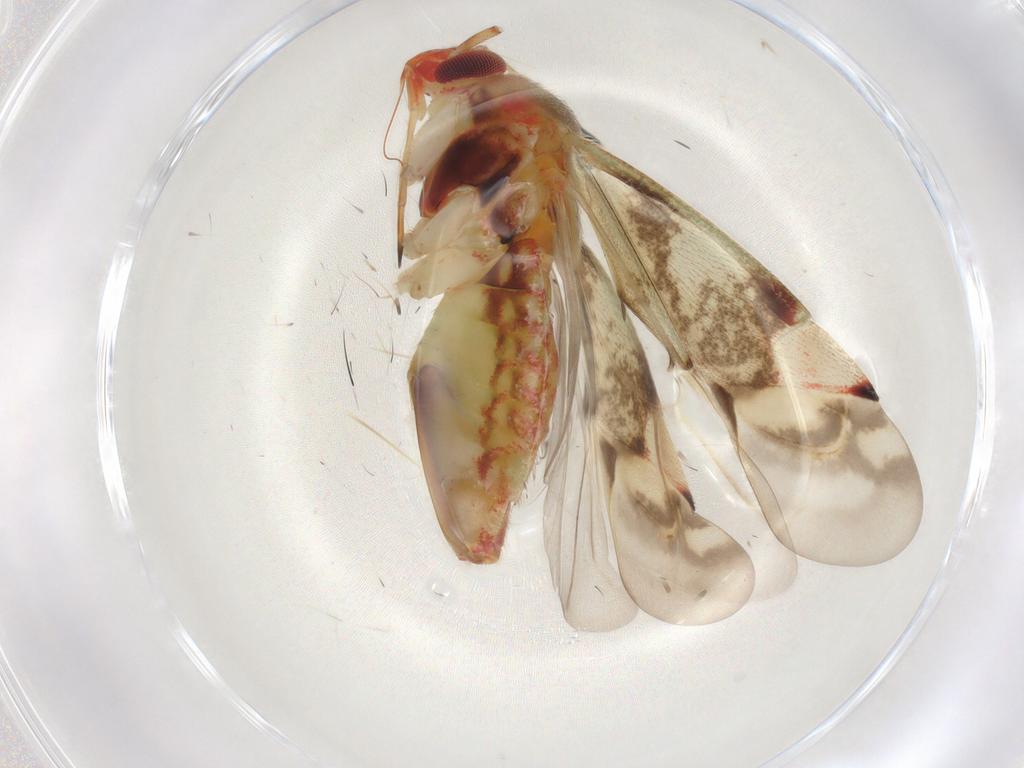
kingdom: Animalia
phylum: Arthropoda
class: Insecta
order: Hemiptera
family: Miridae
